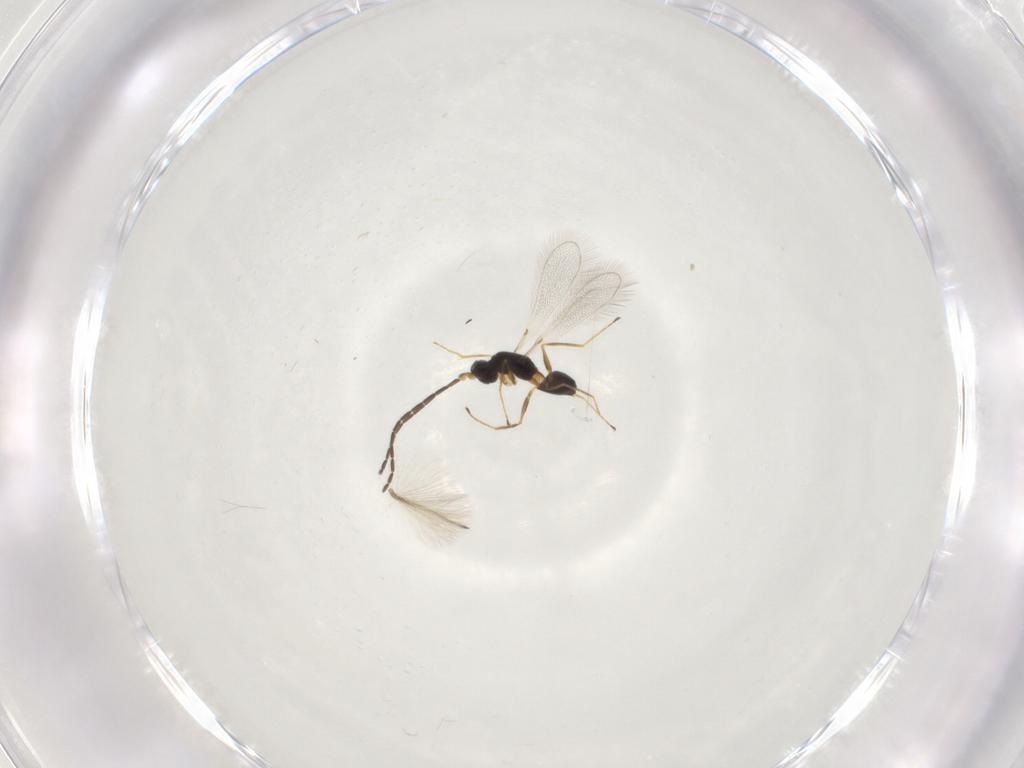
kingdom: Animalia
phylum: Arthropoda
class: Insecta
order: Hymenoptera
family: Mymaridae
